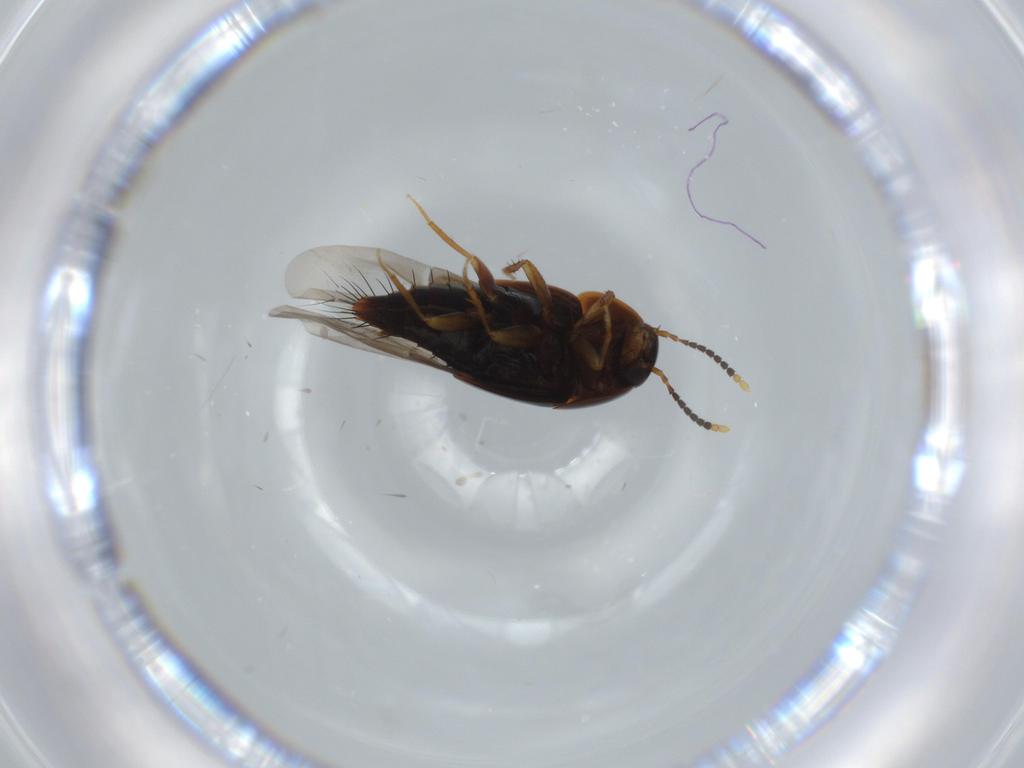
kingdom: Animalia
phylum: Arthropoda
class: Insecta
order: Coleoptera
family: Staphylinidae
